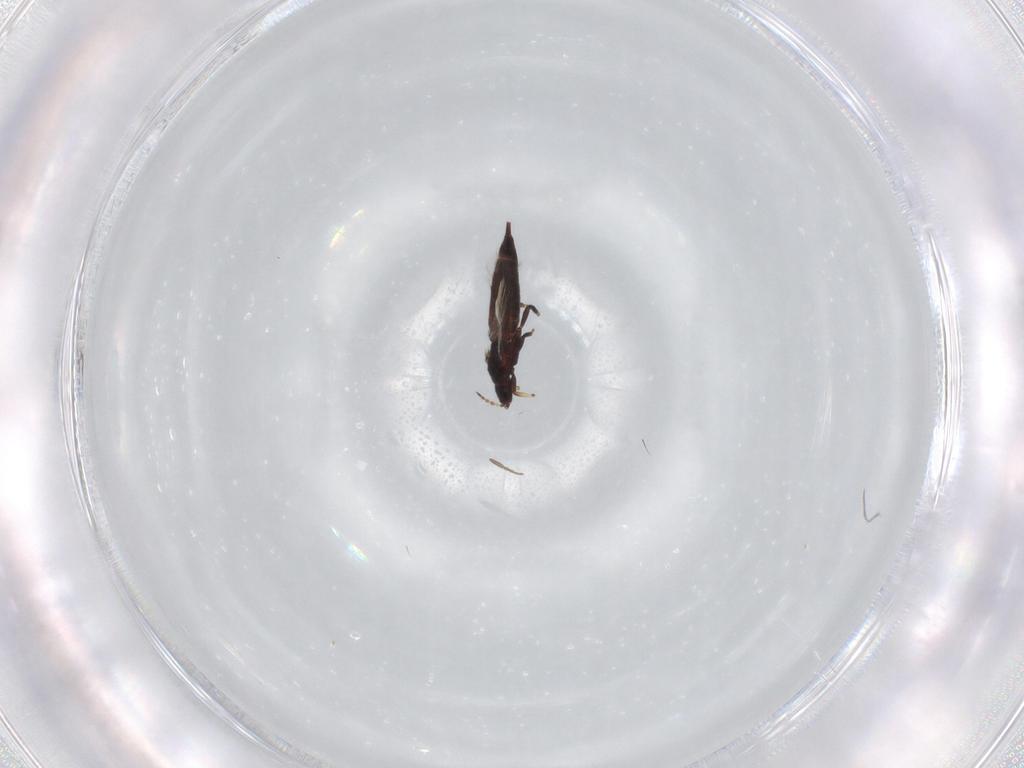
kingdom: Animalia
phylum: Arthropoda
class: Insecta
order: Thysanoptera
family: Phlaeothripidae
